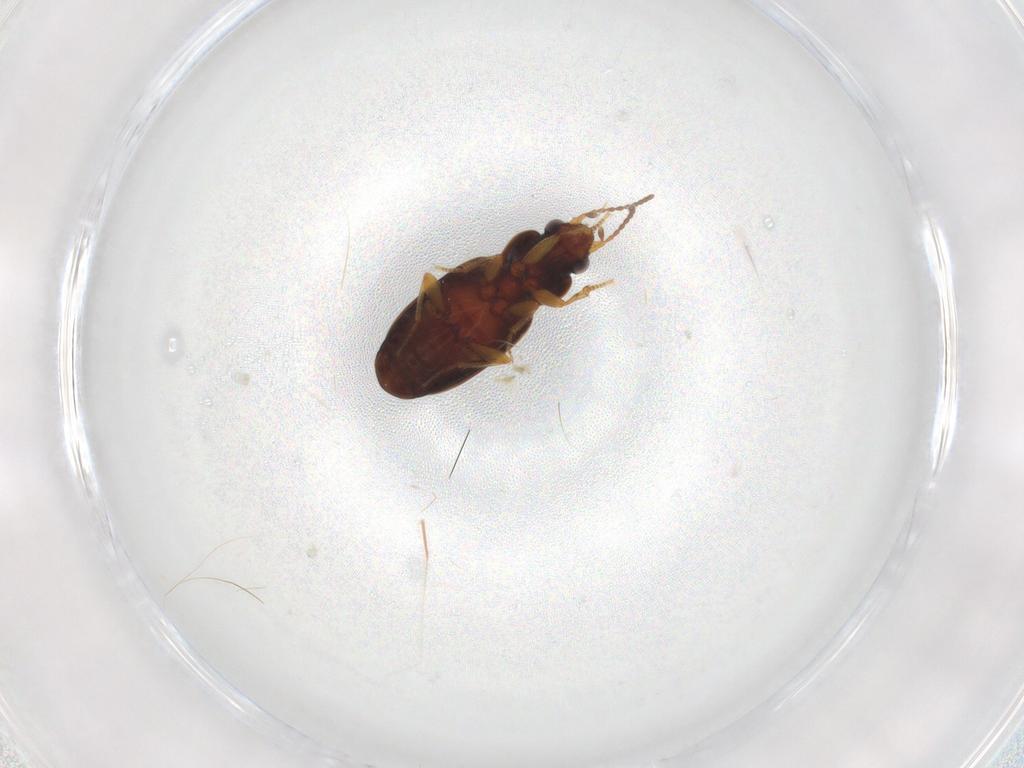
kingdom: Animalia
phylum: Arthropoda
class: Insecta
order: Coleoptera
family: Carabidae
